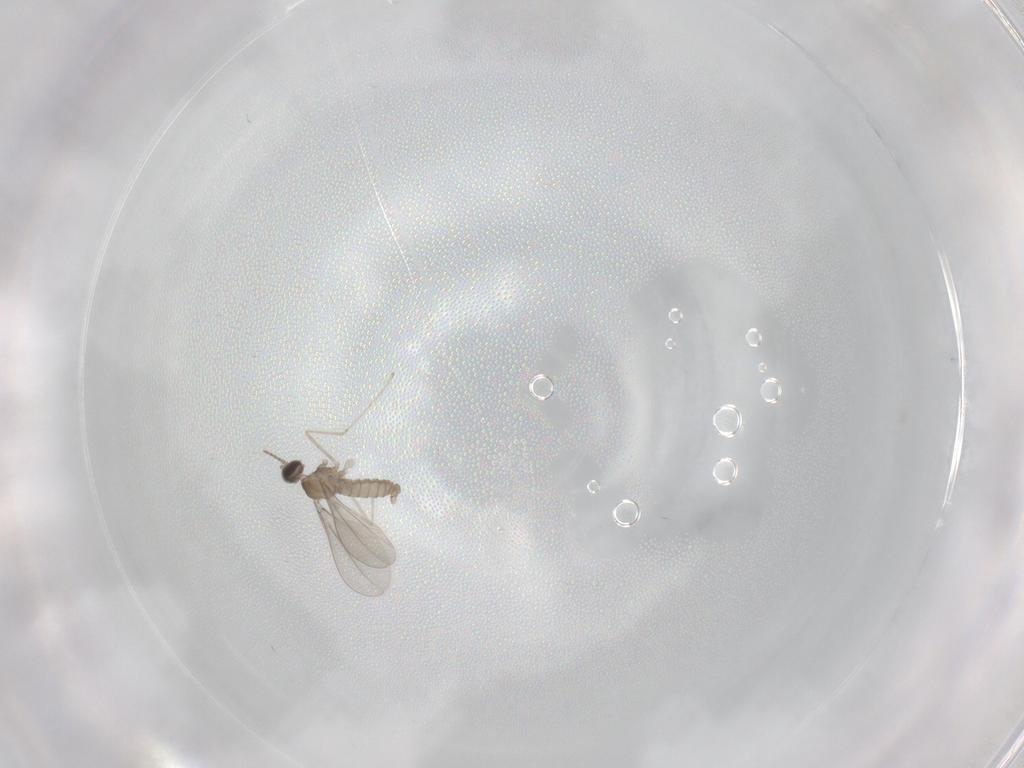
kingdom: Animalia
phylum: Arthropoda
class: Insecta
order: Diptera
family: Cecidomyiidae
